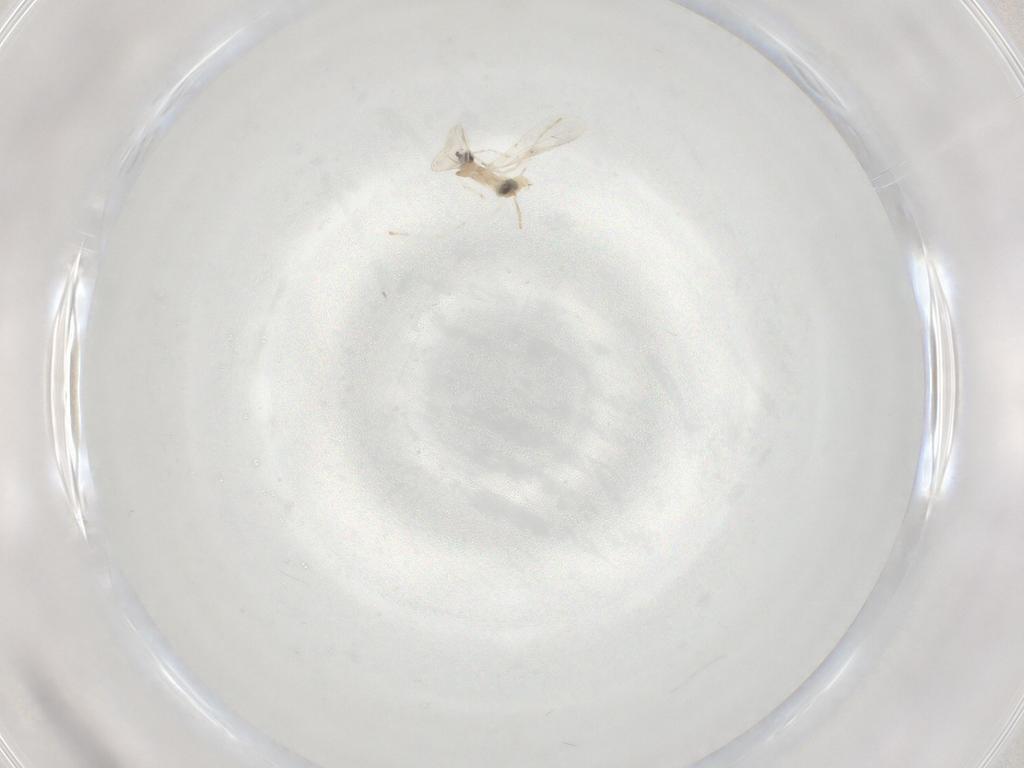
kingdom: Animalia
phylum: Arthropoda
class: Insecta
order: Diptera
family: Cecidomyiidae
